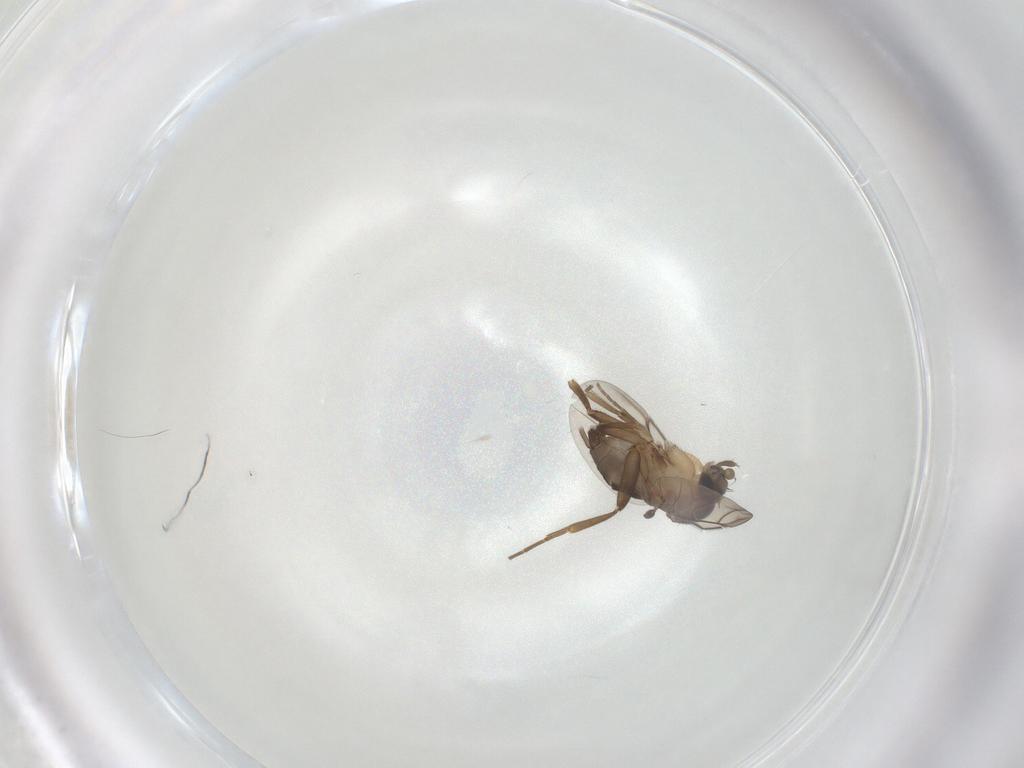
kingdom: Animalia
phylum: Arthropoda
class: Insecta
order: Diptera
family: Phoridae
